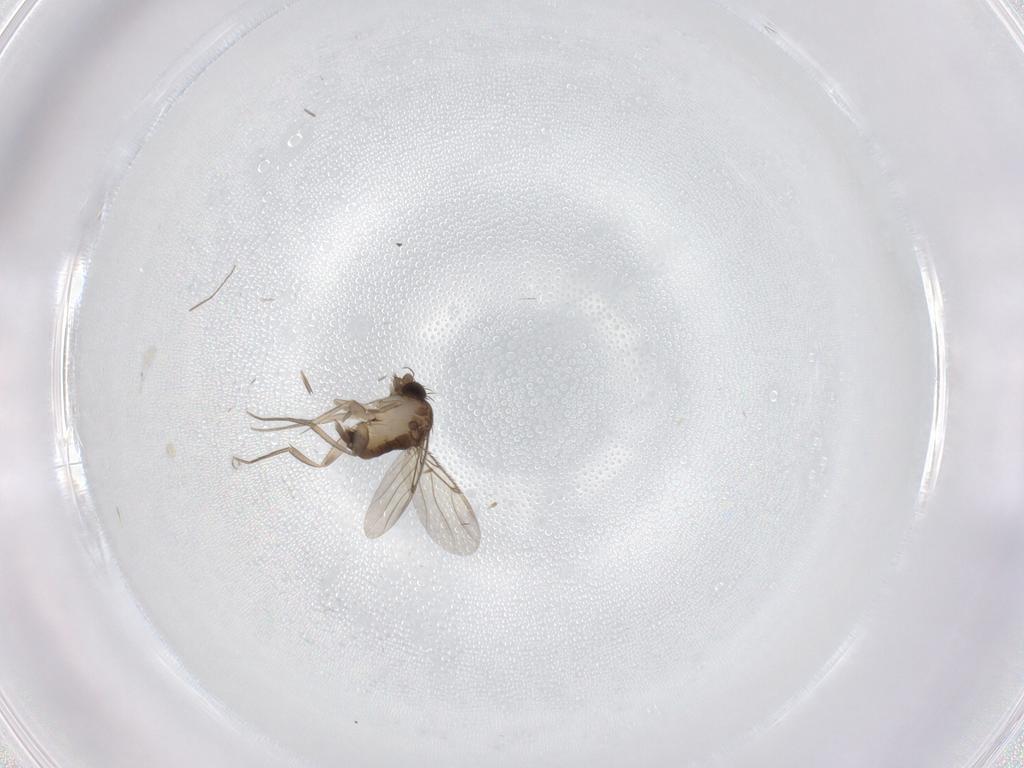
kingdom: Animalia
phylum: Arthropoda
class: Insecta
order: Diptera
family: Phoridae
